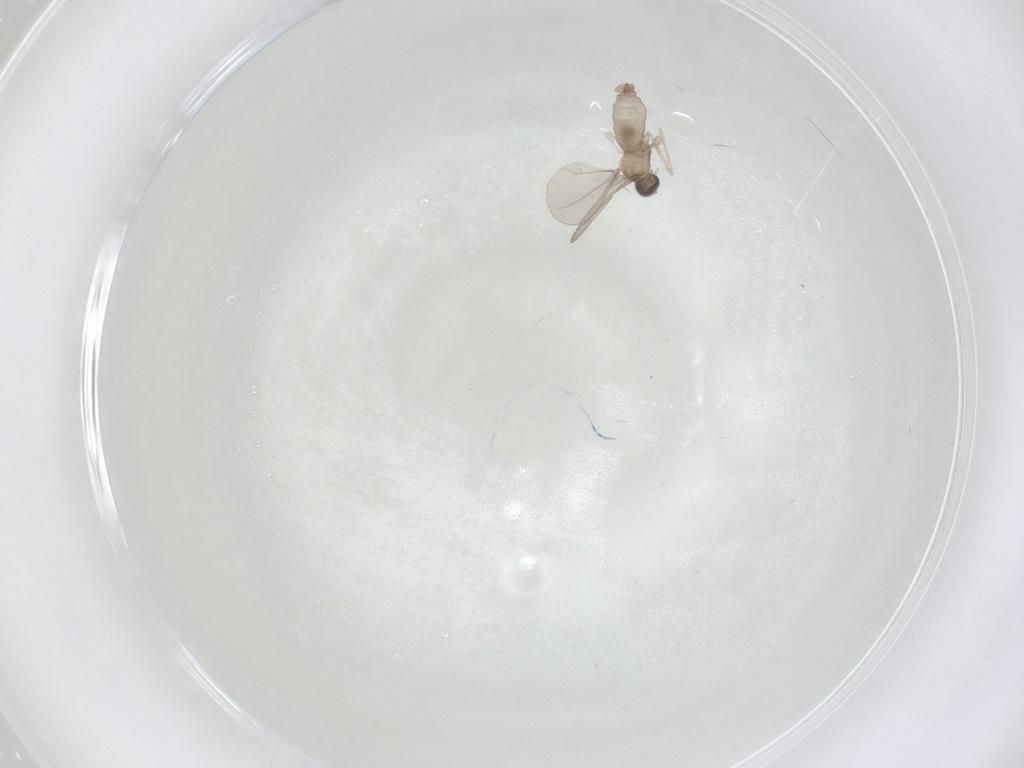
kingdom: Animalia
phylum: Arthropoda
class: Insecta
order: Diptera
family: Cecidomyiidae
